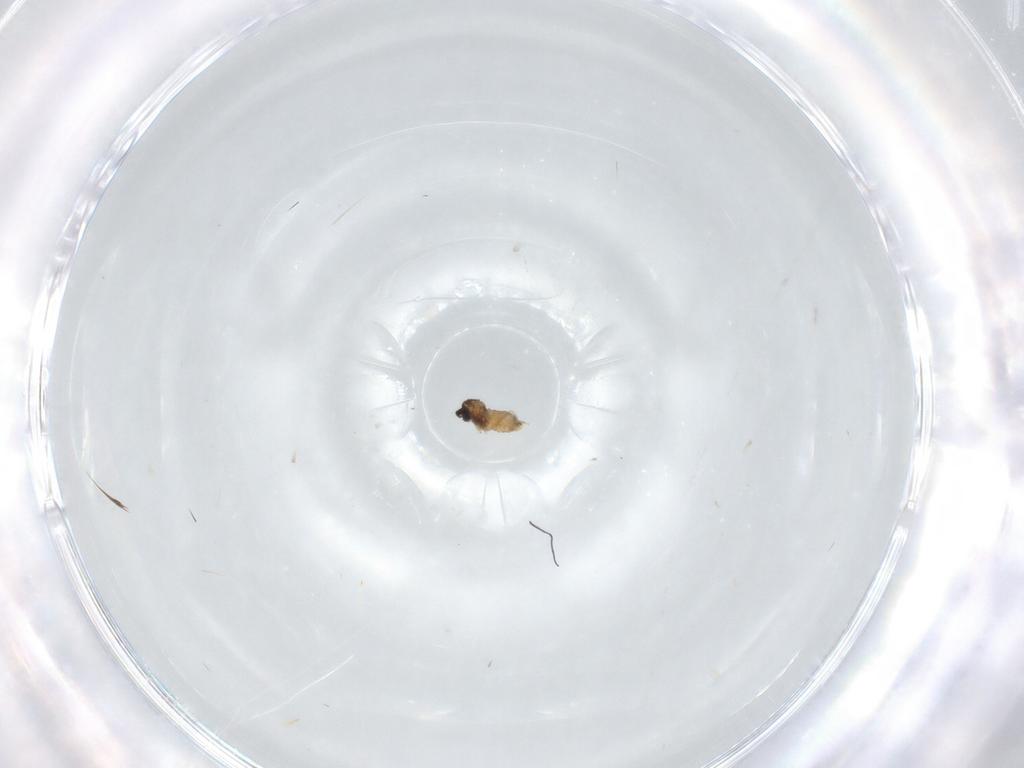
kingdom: Animalia
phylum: Arthropoda
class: Insecta
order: Diptera
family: Cecidomyiidae
